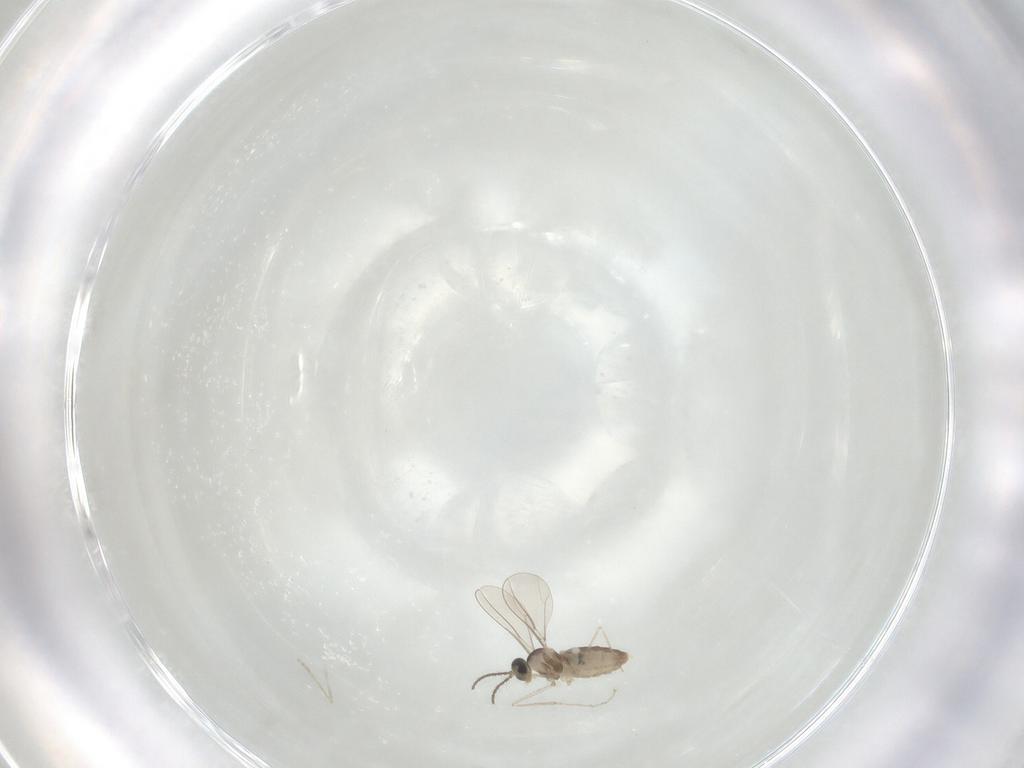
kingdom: Animalia
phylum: Arthropoda
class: Insecta
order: Diptera
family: Cecidomyiidae
